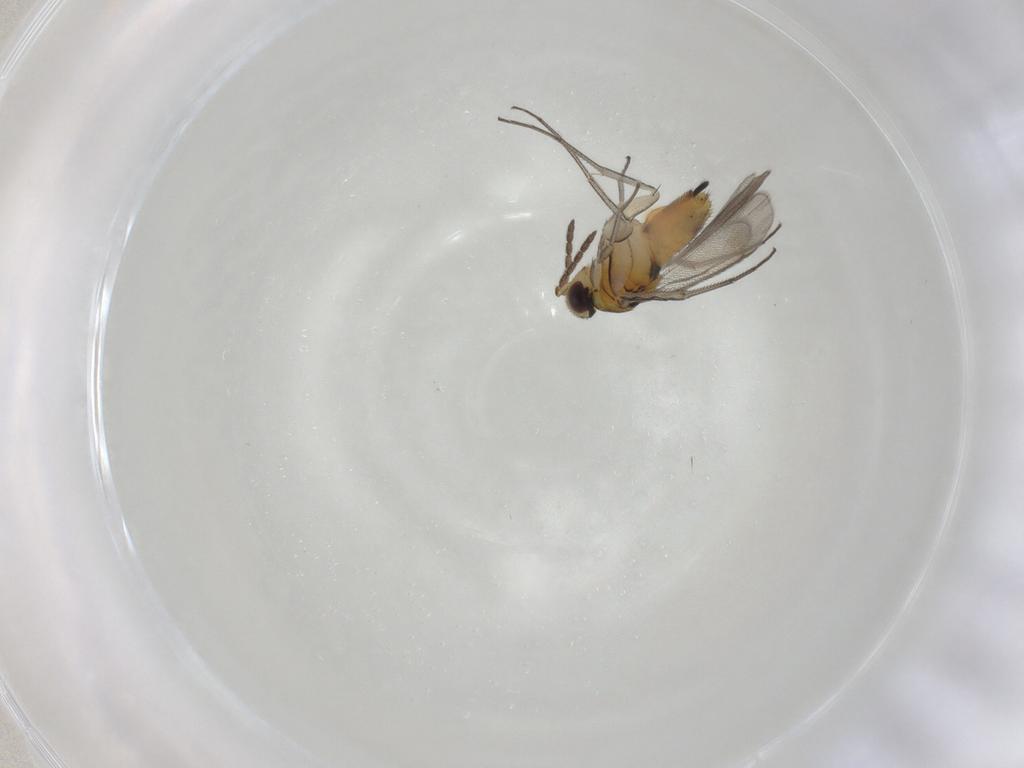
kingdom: Animalia
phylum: Arthropoda
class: Insecta
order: Hymenoptera
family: Eulophidae
